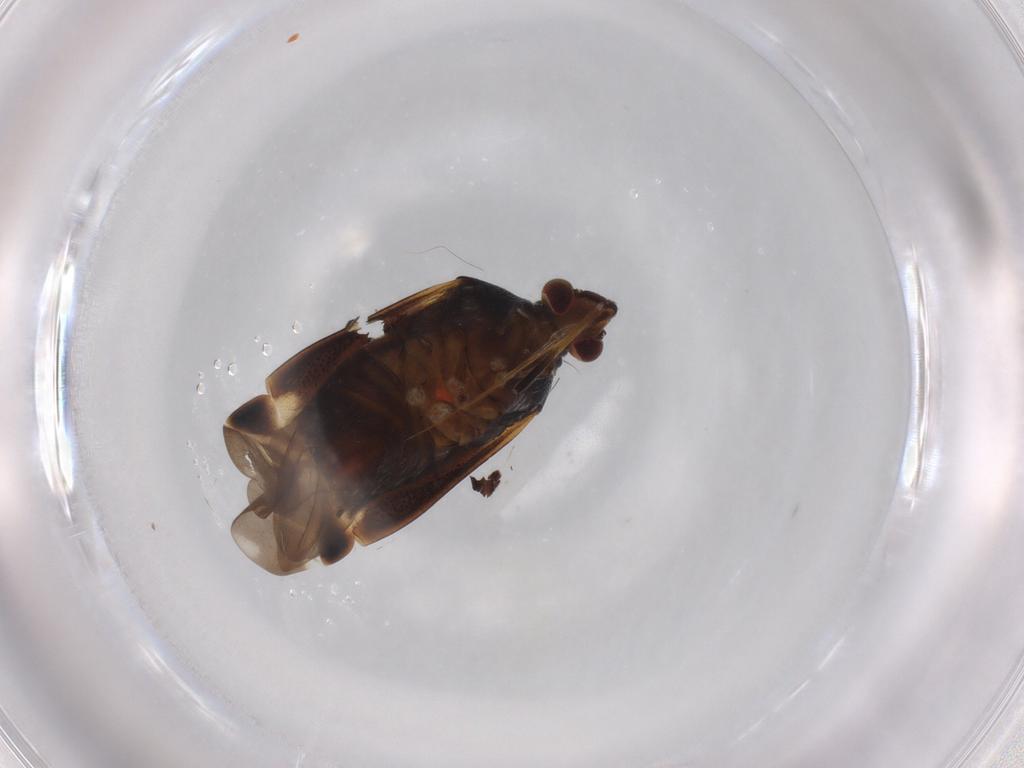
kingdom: Animalia
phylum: Arthropoda
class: Insecta
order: Hemiptera
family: Miridae
